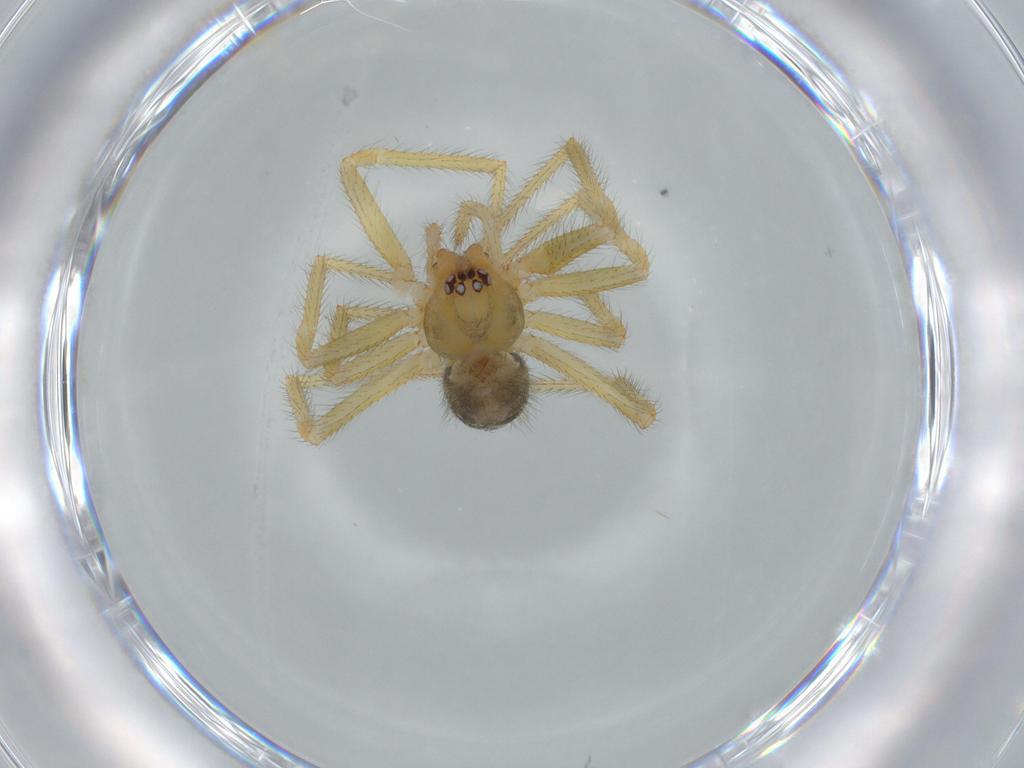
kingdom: Animalia
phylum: Arthropoda
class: Arachnida
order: Araneae
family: Nesticidae
